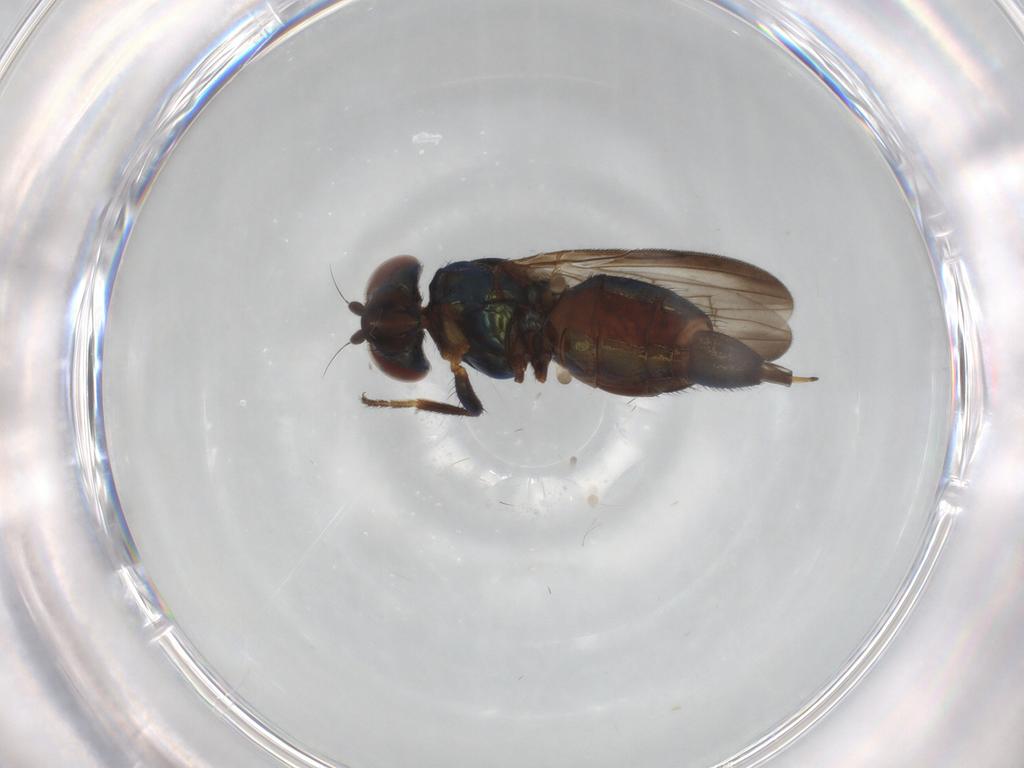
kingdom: Animalia
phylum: Arthropoda
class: Insecta
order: Diptera
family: Ulidiidae
